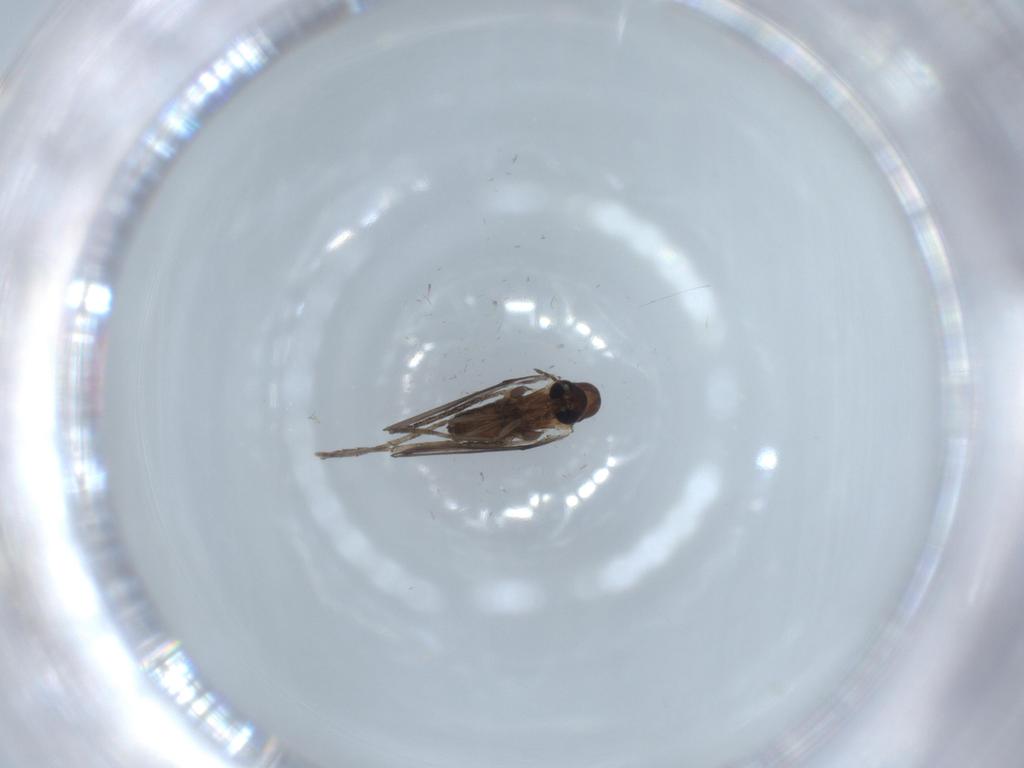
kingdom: Animalia
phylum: Arthropoda
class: Insecta
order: Diptera
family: Psychodidae
